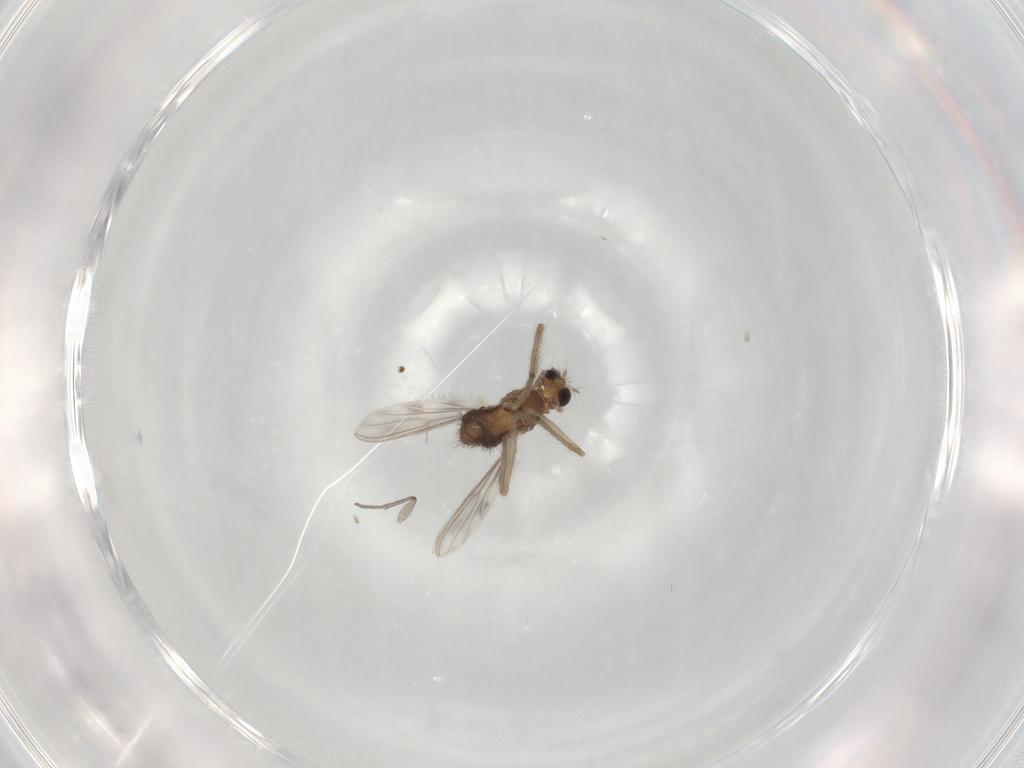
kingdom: Animalia
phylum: Arthropoda
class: Insecta
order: Diptera
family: Chironomidae
